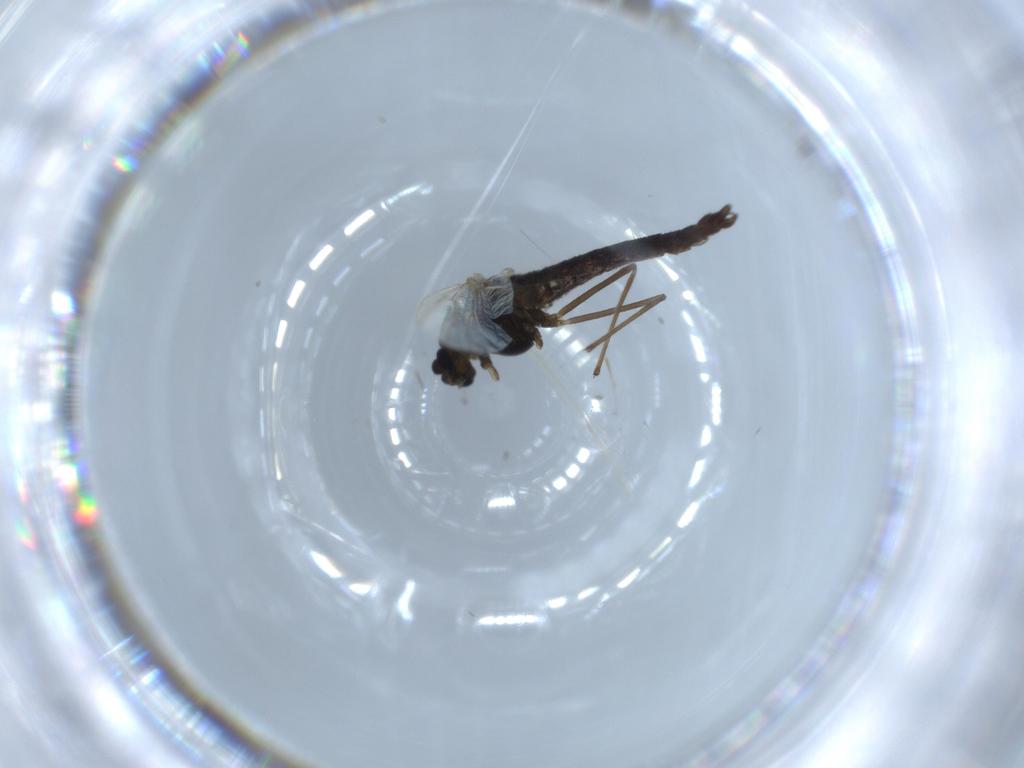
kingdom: Animalia
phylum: Arthropoda
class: Insecta
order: Diptera
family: Chironomidae
